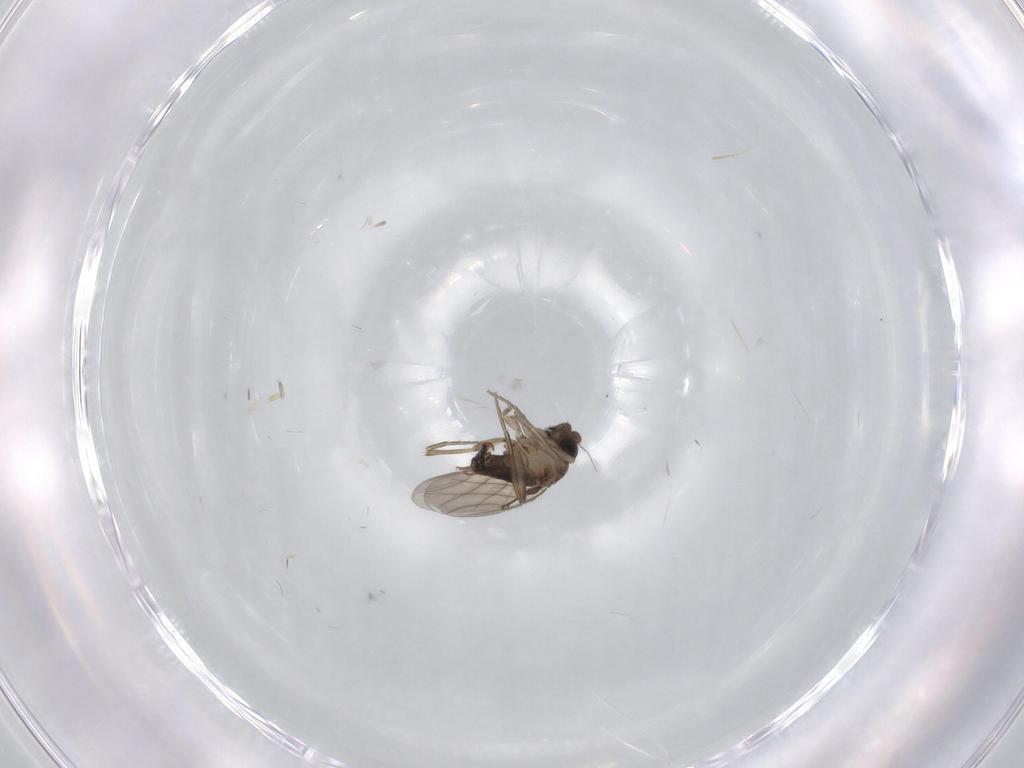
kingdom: Animalia
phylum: Arthropoda
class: Insecta
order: Diptera
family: Phoridae
